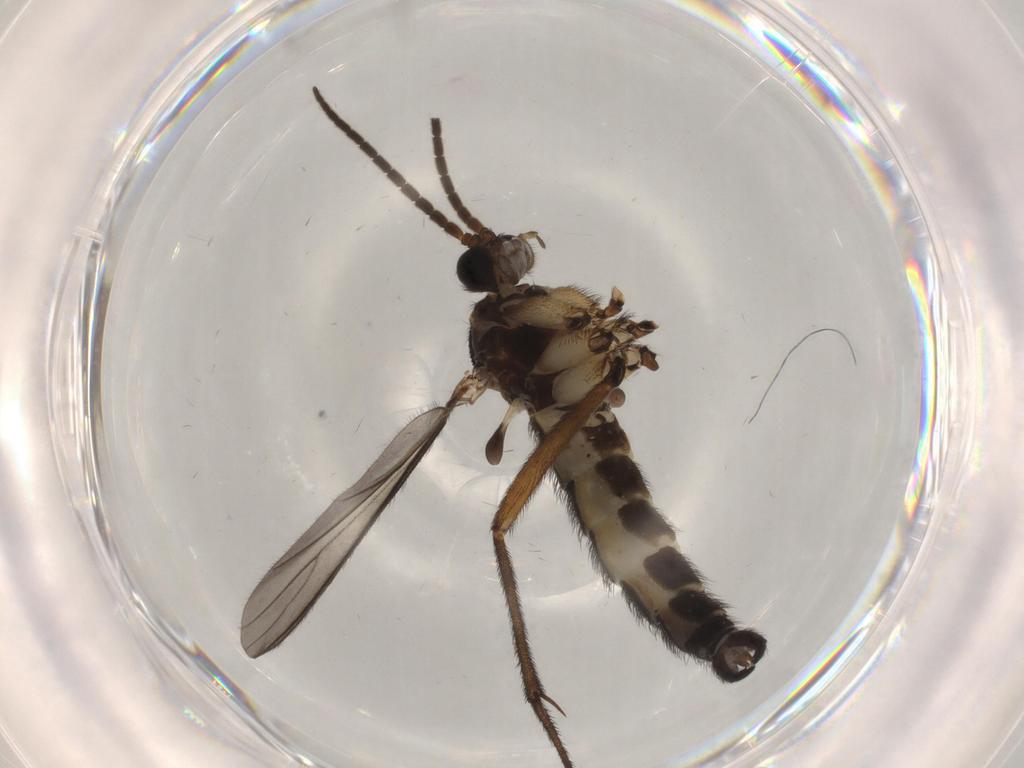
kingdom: Animalia
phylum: Arthropoda
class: Insecta
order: Diptera
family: Sciaridae
